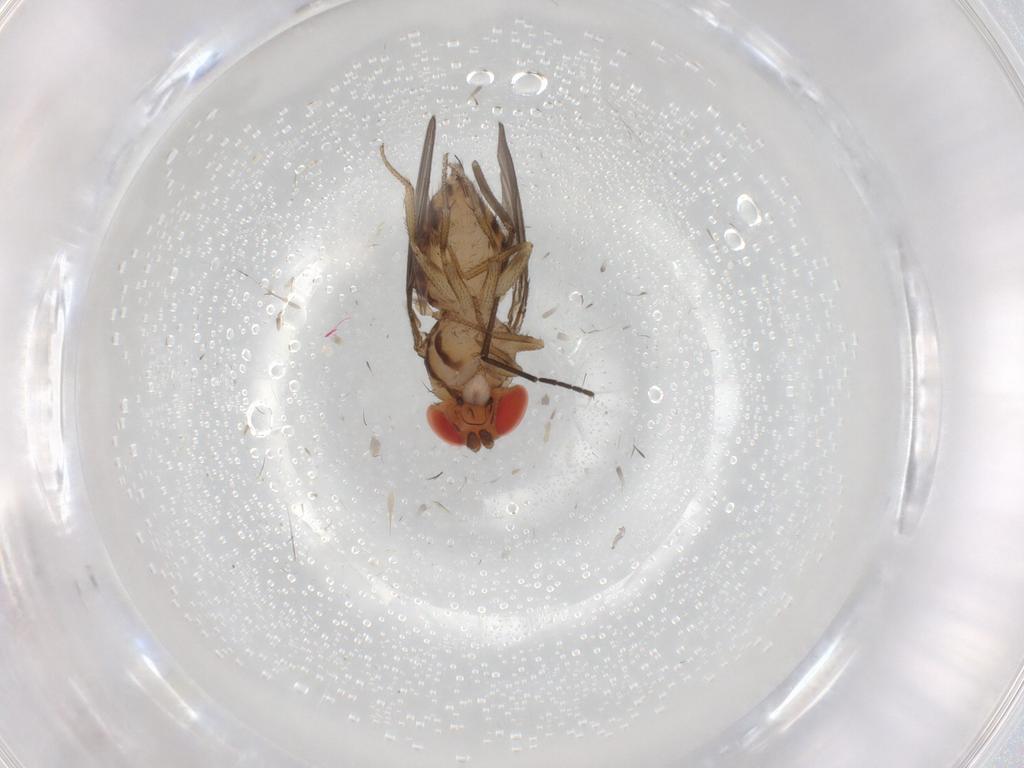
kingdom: Animalia
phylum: Arthropoda
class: Insecta
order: Diptera
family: Drosophilidae
